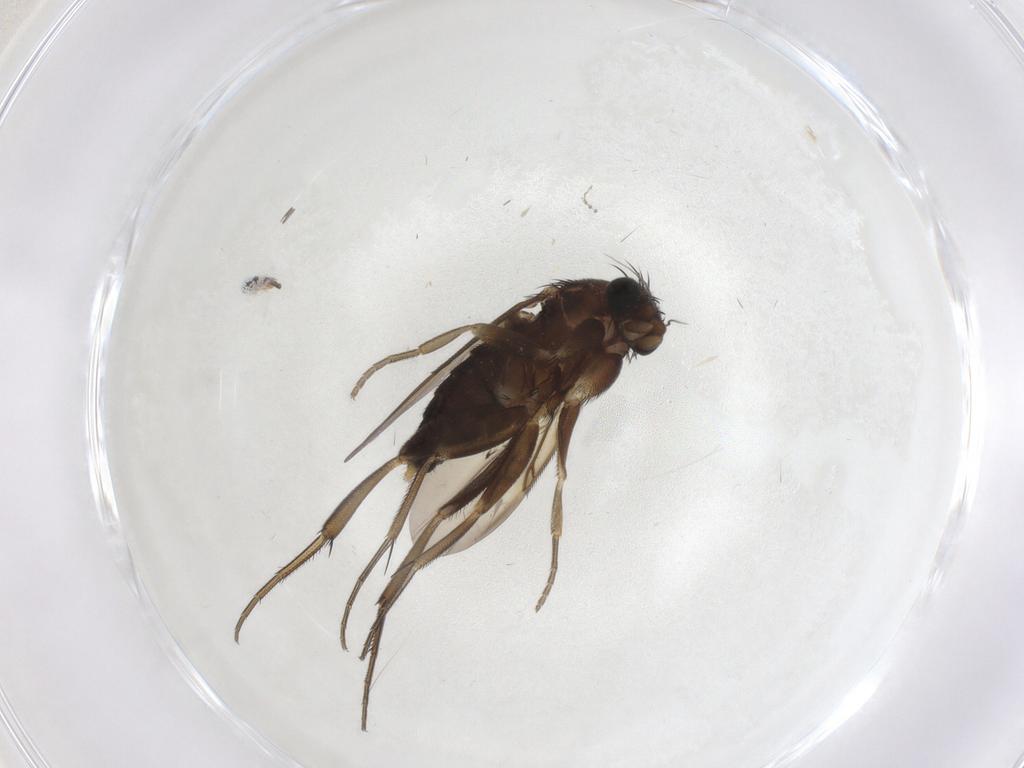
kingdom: Animalia
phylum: Arthropoda
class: Insecta
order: Diptera
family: Phoridae
